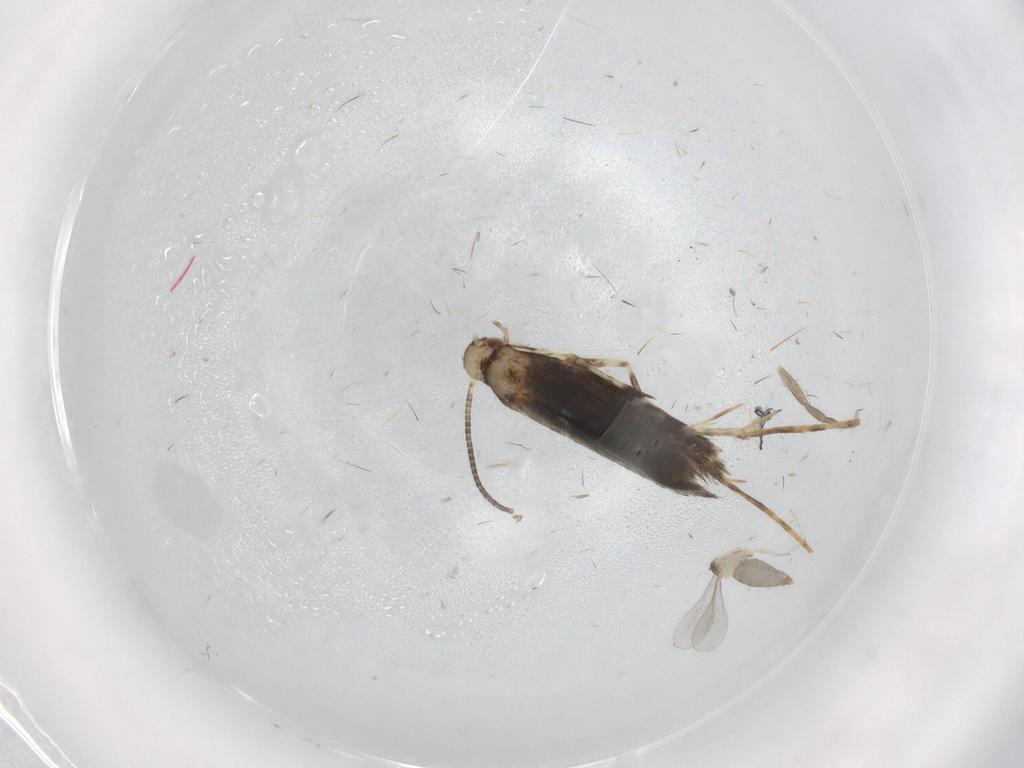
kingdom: Animalia
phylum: Arthropoda
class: Insecta
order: Lepidoptera
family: Gracillariidae
